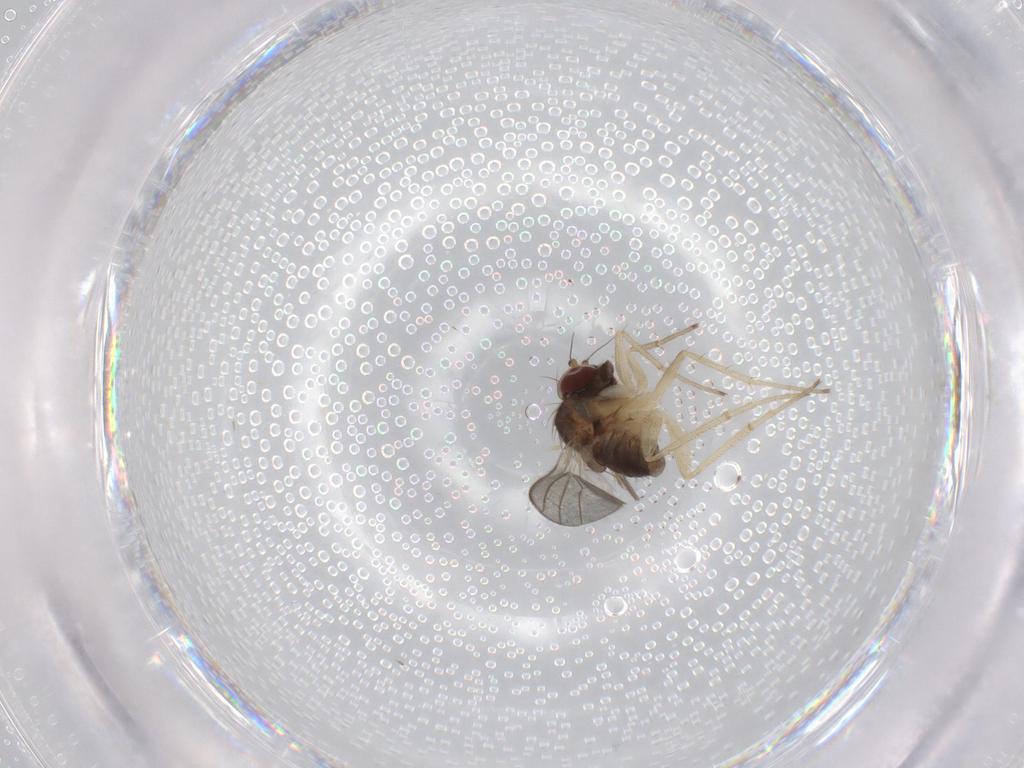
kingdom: Animalia
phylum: Arthropoda
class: Insecta
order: Diptera
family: Dolichopodidae
